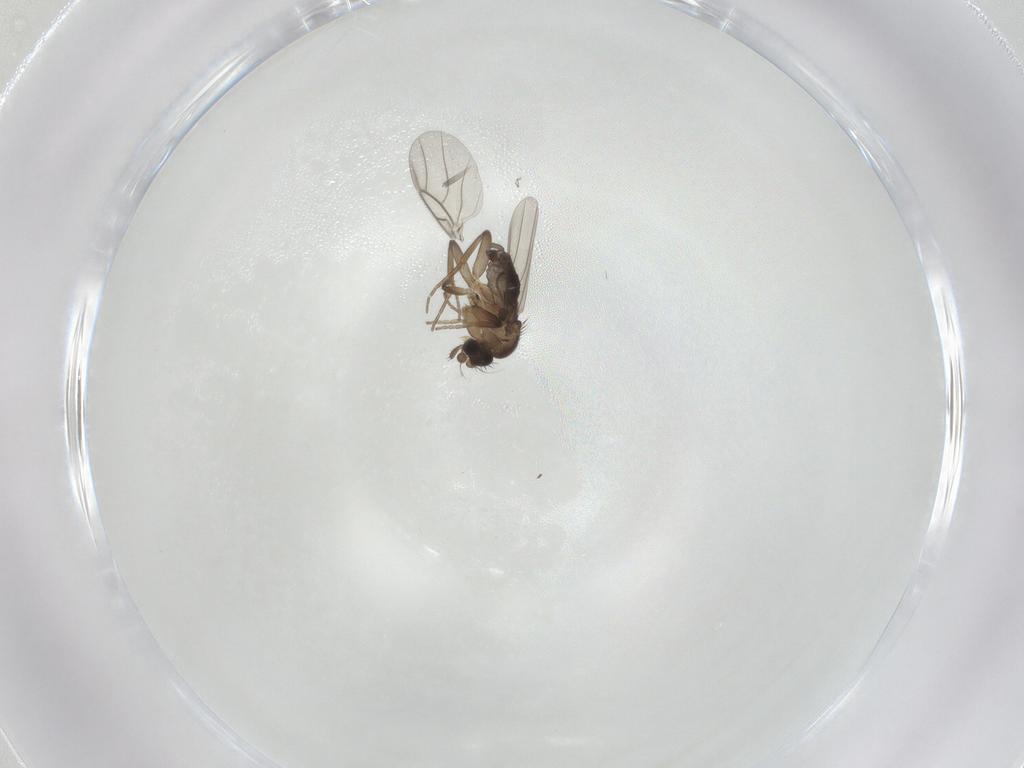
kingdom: Animalia
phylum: Arthropoda
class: Insecta
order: Diptera
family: Phoridae
